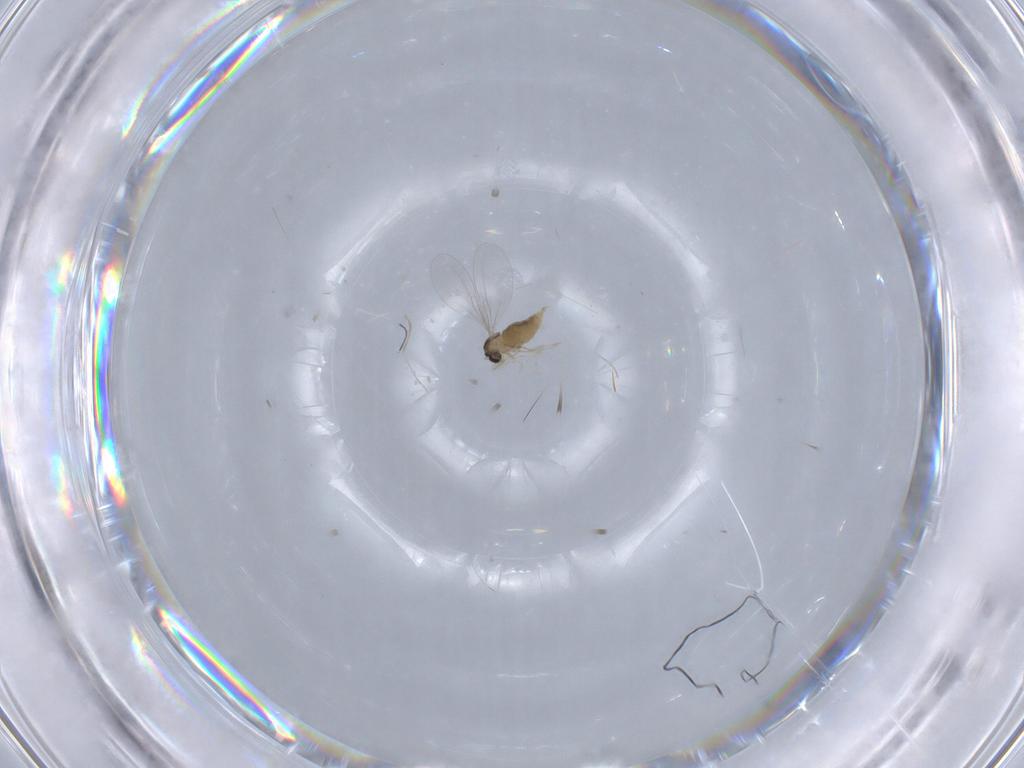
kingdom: Animalia
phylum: Arthropoda
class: Insecta
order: Diptera
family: Cecidomyiidae
